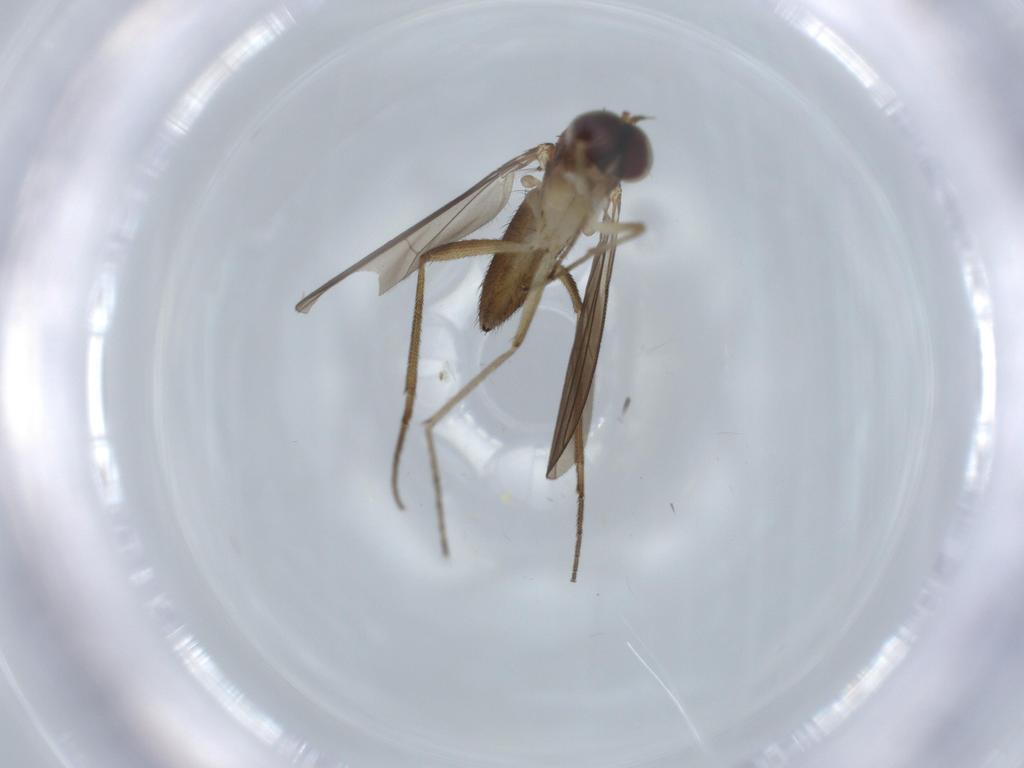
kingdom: Animalia
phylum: Arthropoda
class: Insecta
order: Diptera
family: Dolichopodidae
